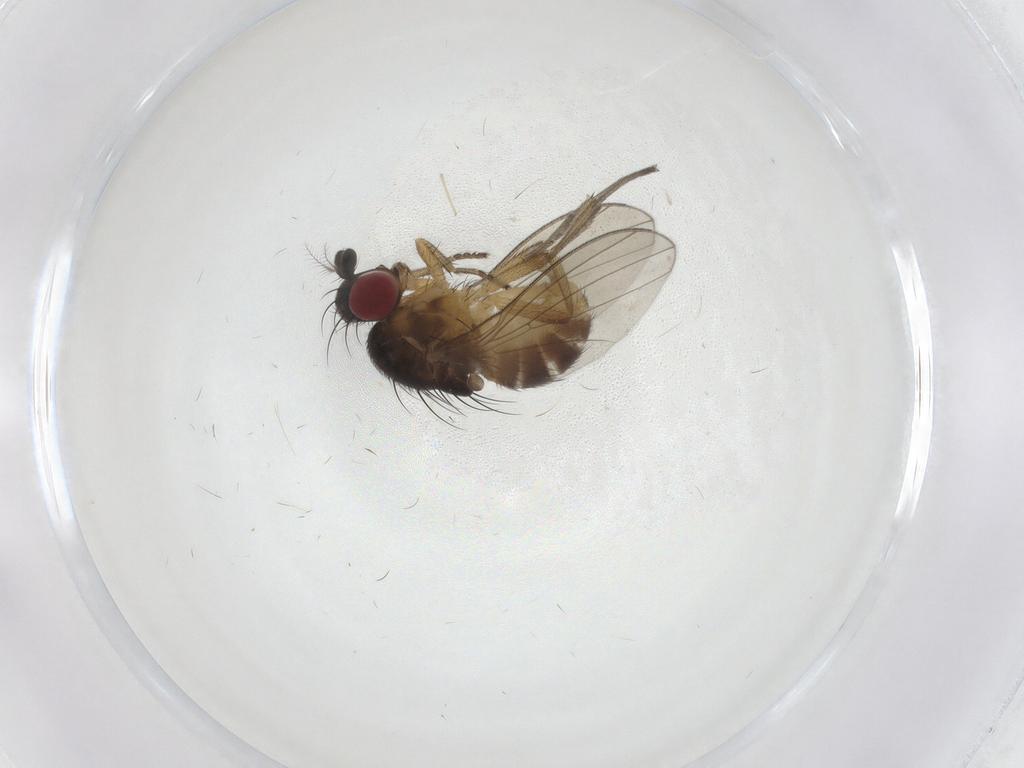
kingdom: Animalia
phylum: Arthropoda
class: Insecta
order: Diptera
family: Lauxaniidae
